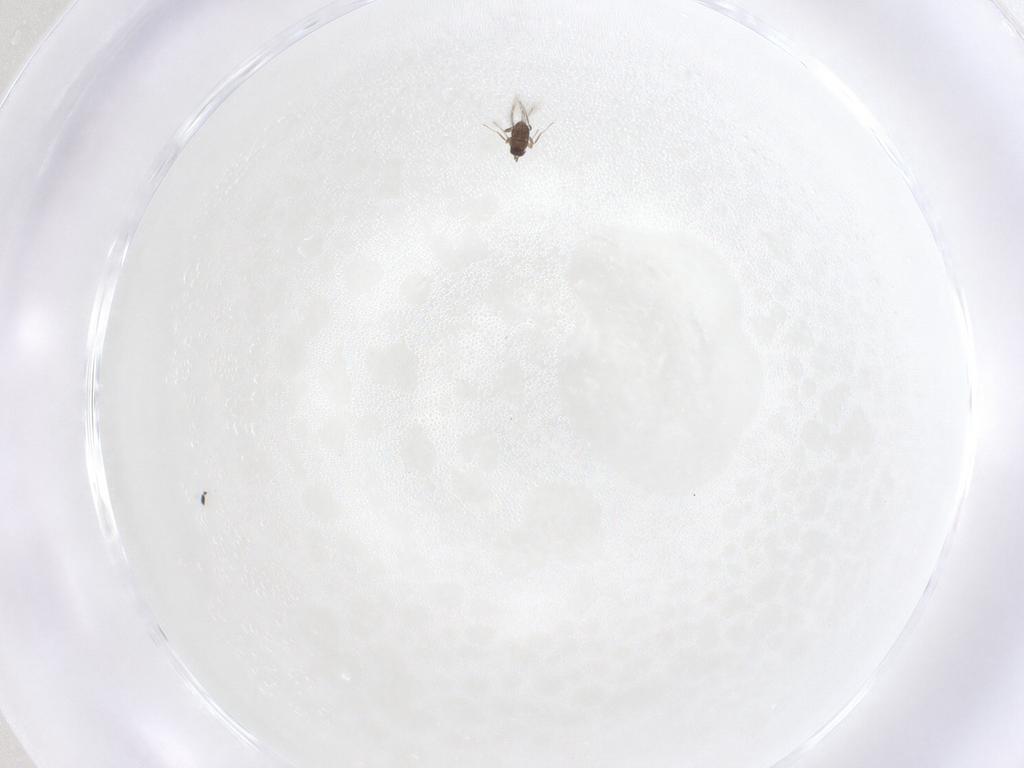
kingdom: Animalia
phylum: Arthropoda
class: Insecta
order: Hymenoptera
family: Mymaridae
